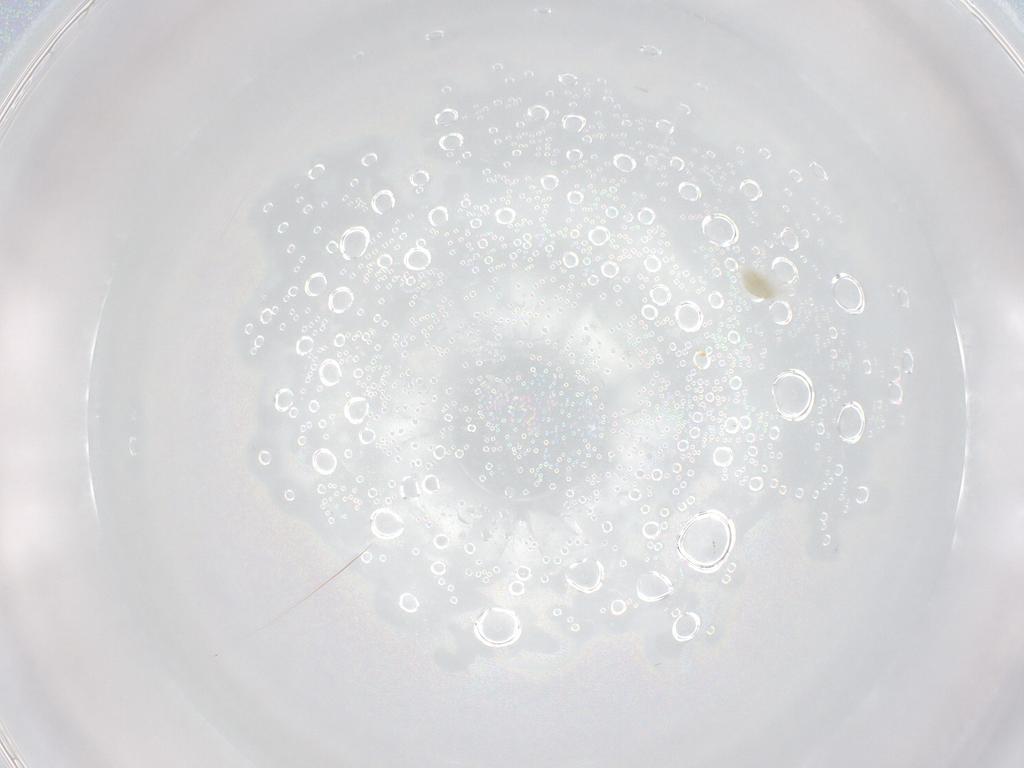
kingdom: Animalia
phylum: Arthropoda
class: Arachnida
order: Trombidiformes
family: Eupodidae
